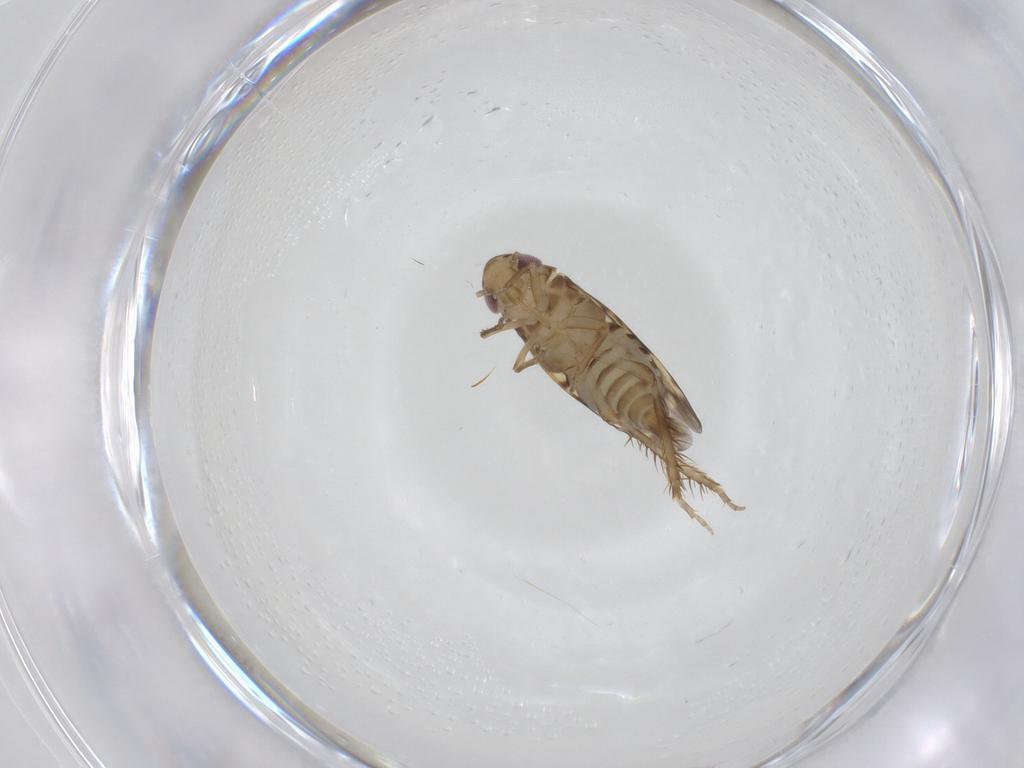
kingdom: Animalia
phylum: Arthropoda
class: Insecta
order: Hemiptera
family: Cicadellidae
